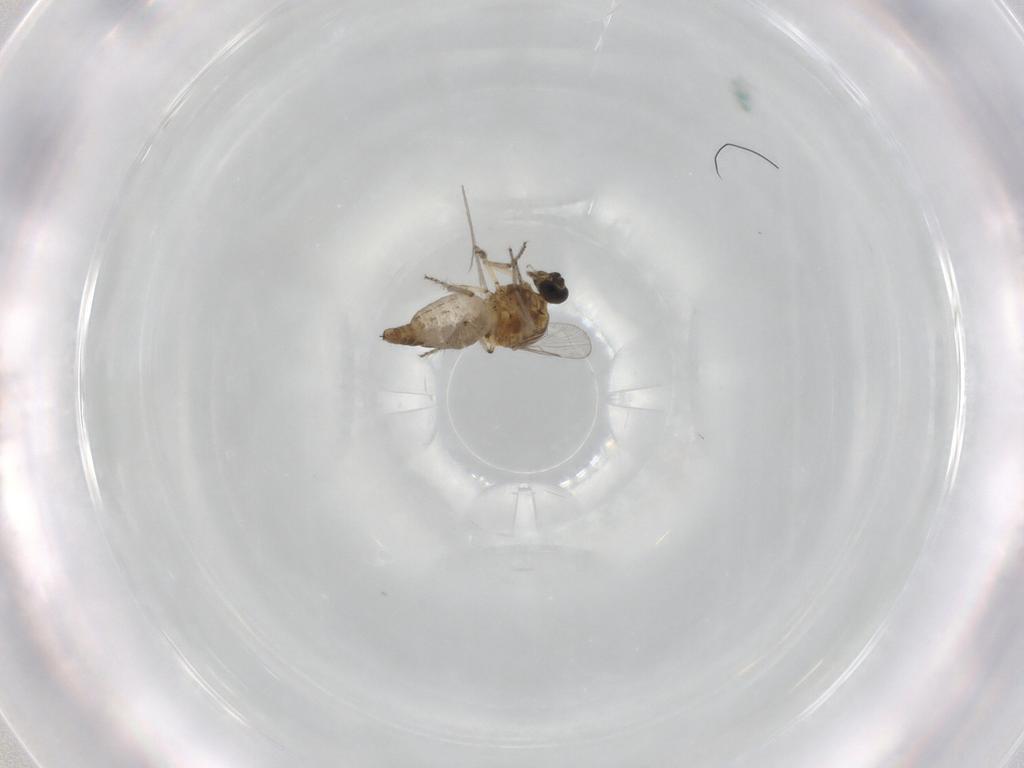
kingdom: Animalia
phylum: Arthropoda
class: Insecta
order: Diptera
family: Ceratopogonidae
